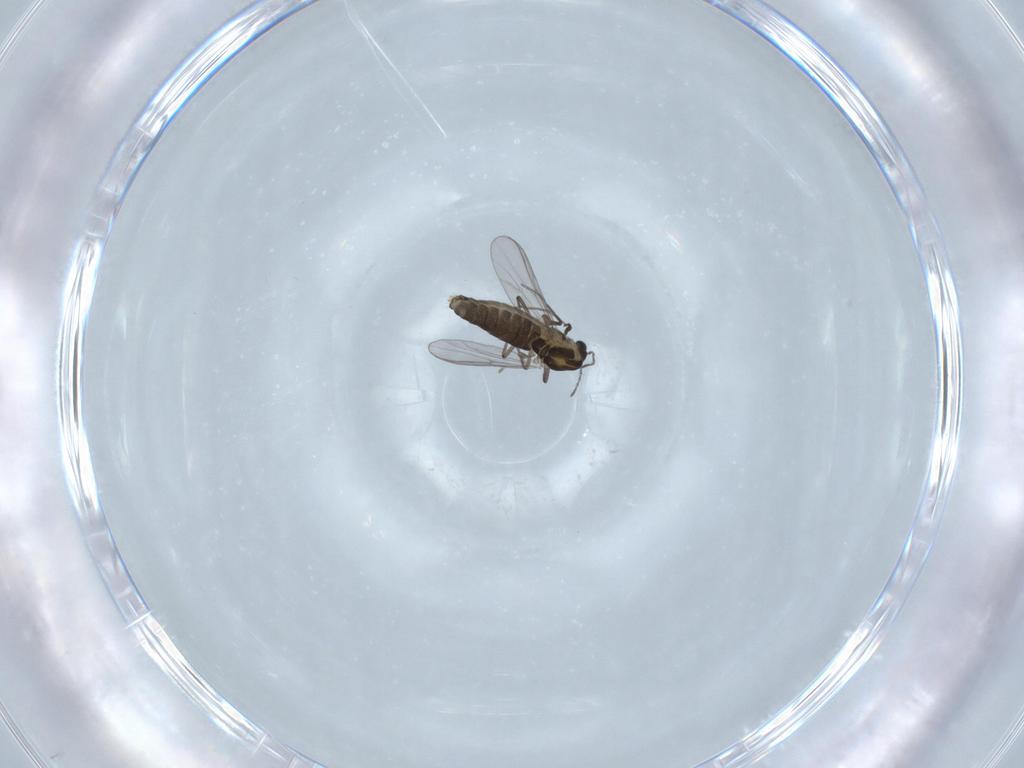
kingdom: Animalia
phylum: Arthropoda
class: Insecta
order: Diptera
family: Chironomidae
